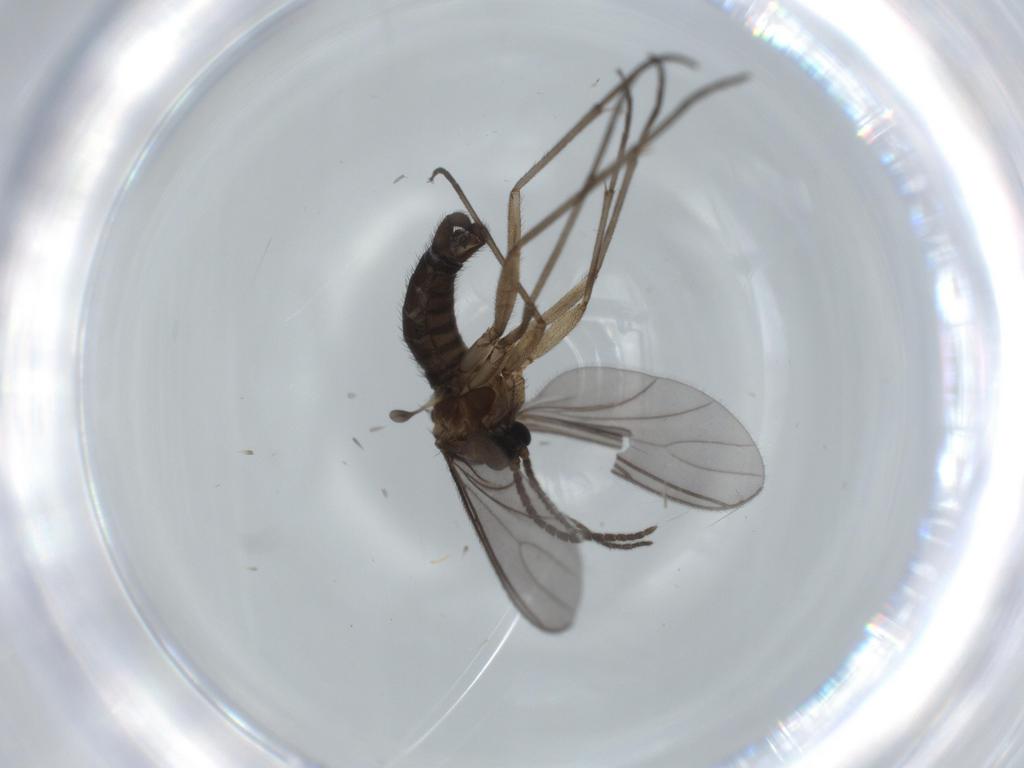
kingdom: Animalia
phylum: Arthropoda
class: Insecta
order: Diptera
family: Sciaridae
